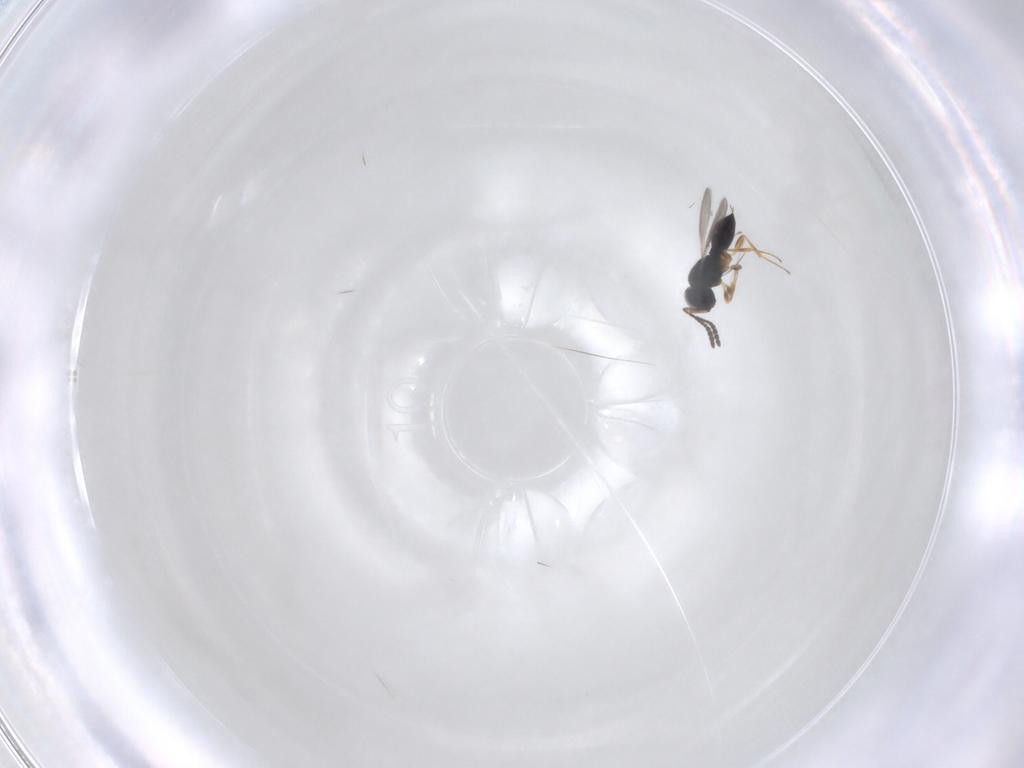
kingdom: Animalia
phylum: Arthropoda
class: Insecta
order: Hymenoptera
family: Scelionidae
